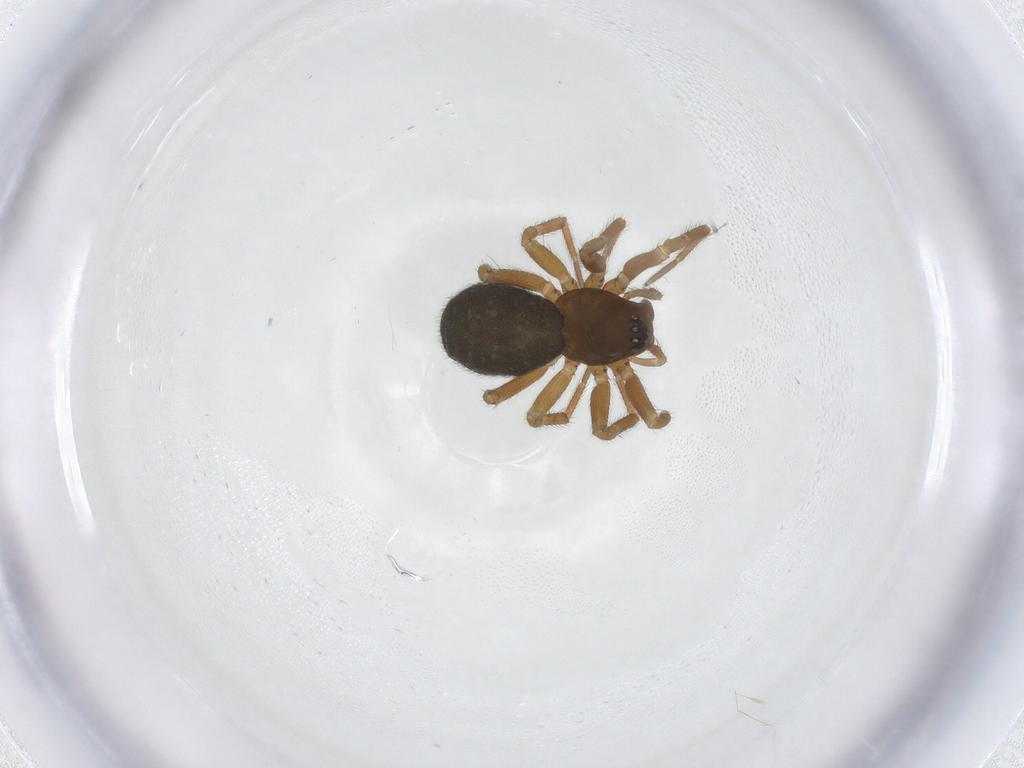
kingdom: Animalia
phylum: Arthropoda
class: Arachnida
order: Araneae
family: Linyphiidae
